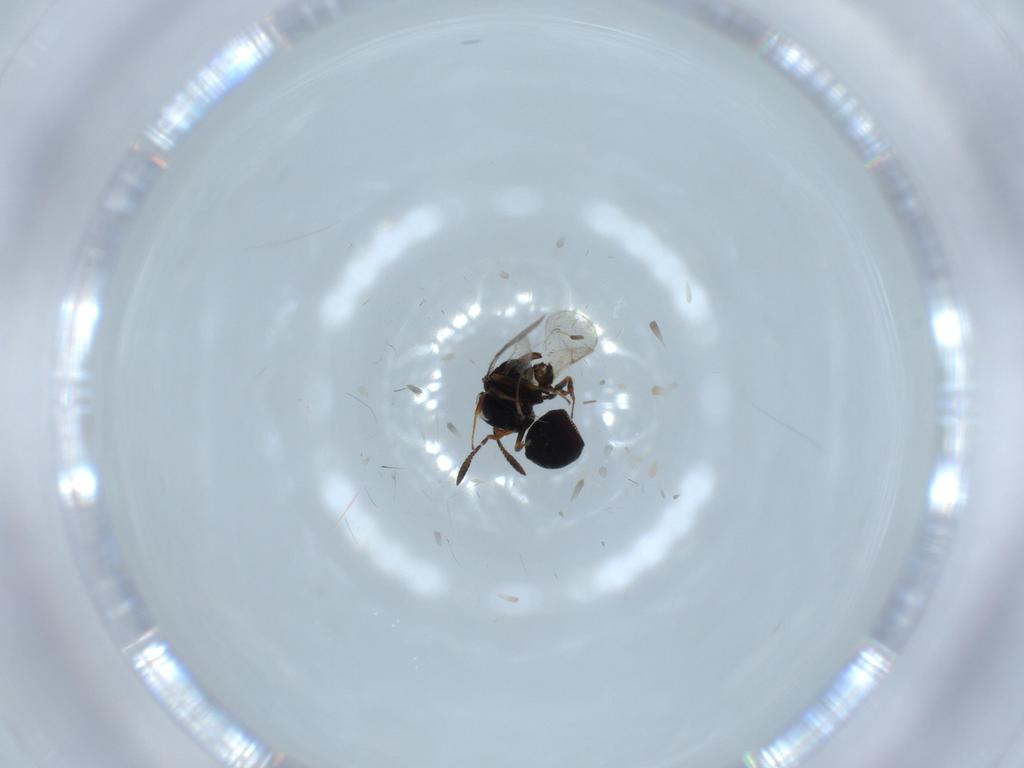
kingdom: Animalia
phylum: Arthropoda
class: Insecta
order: Hymenoptera
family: Scelionidae
